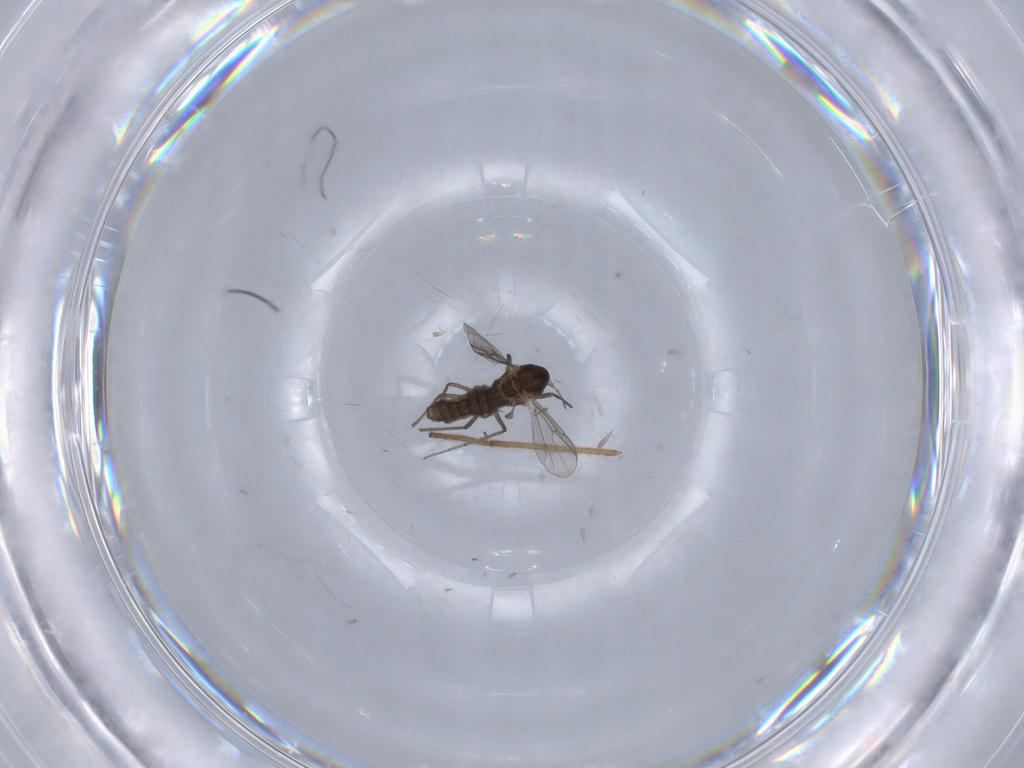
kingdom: Animalia
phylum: Arthropoda
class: Insecta
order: Diptera
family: Chironomidae
